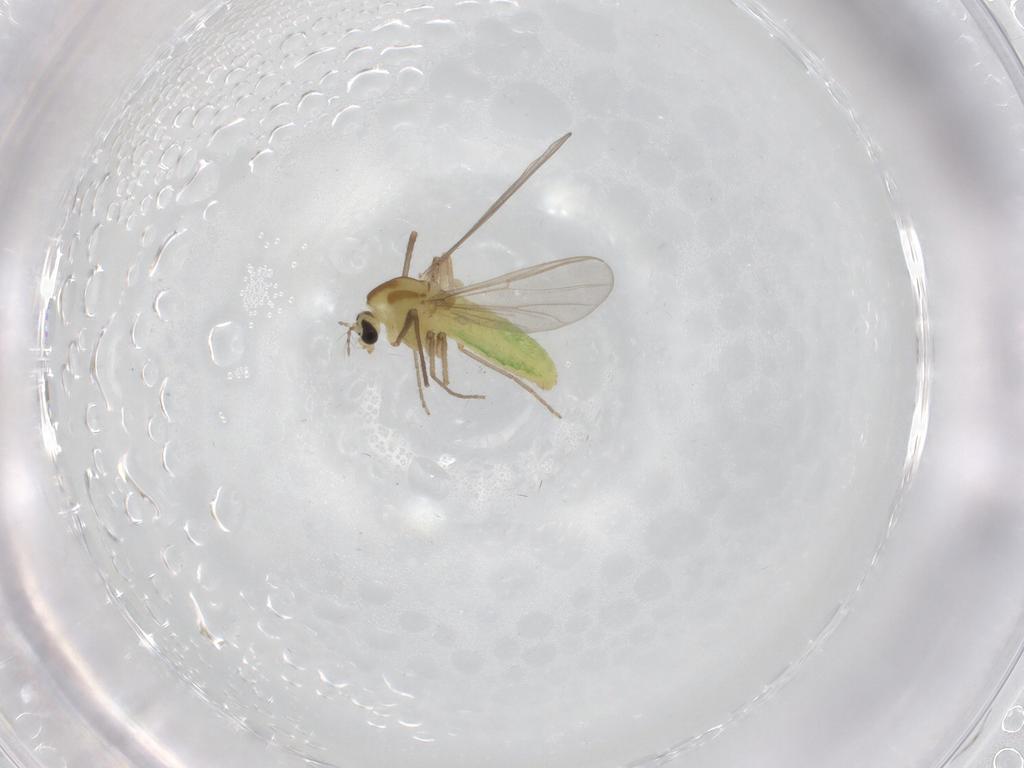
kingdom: Animalia
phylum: Arthropoda
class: Insecta
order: Diptera
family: Chironomidae
